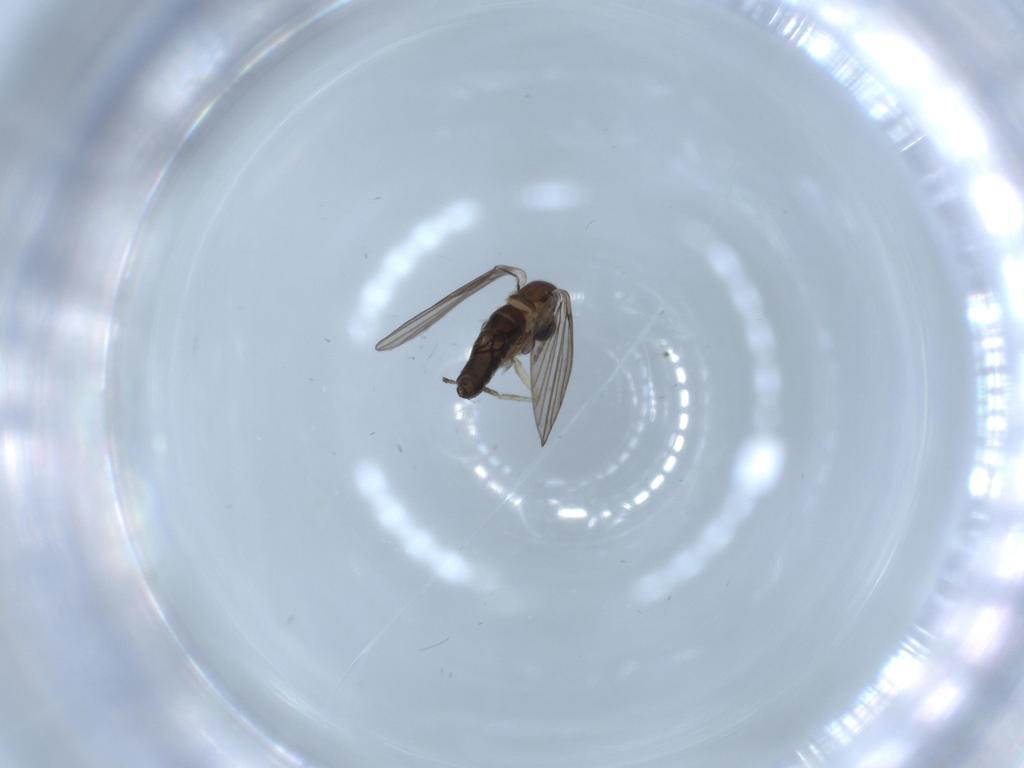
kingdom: Animalia
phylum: Arthropoda
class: Insecta
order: Diptera
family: Psychodidae
